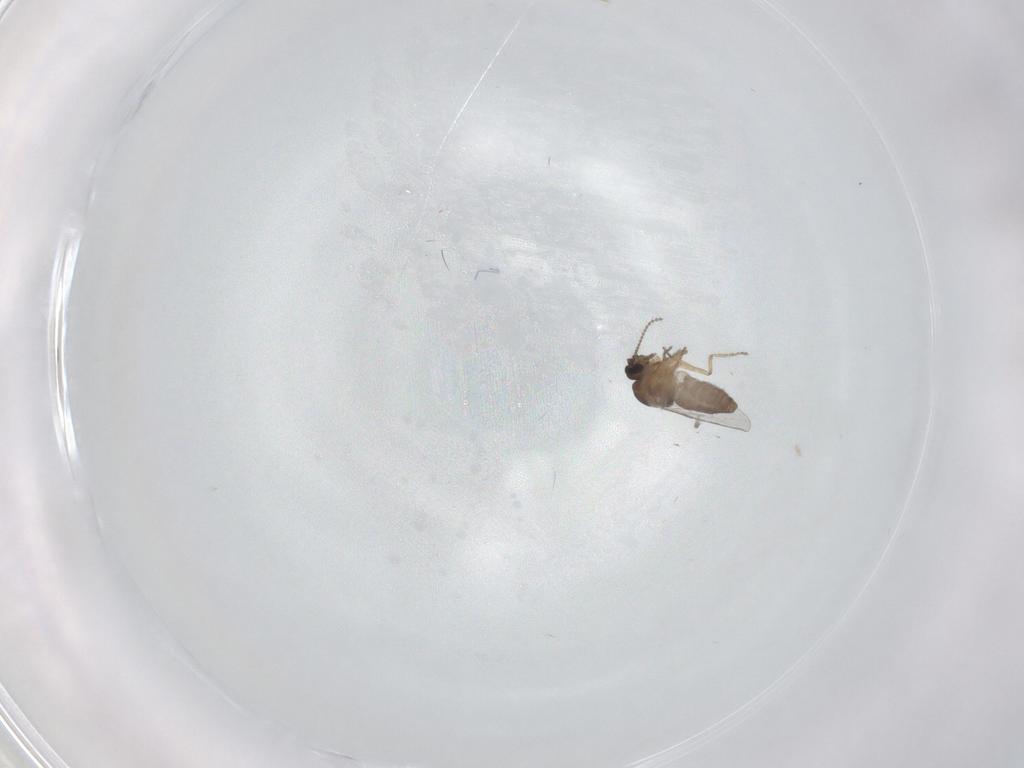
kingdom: Animalia
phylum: Arthropoda
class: Insecta
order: Diptera
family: Ceratopogonidae
